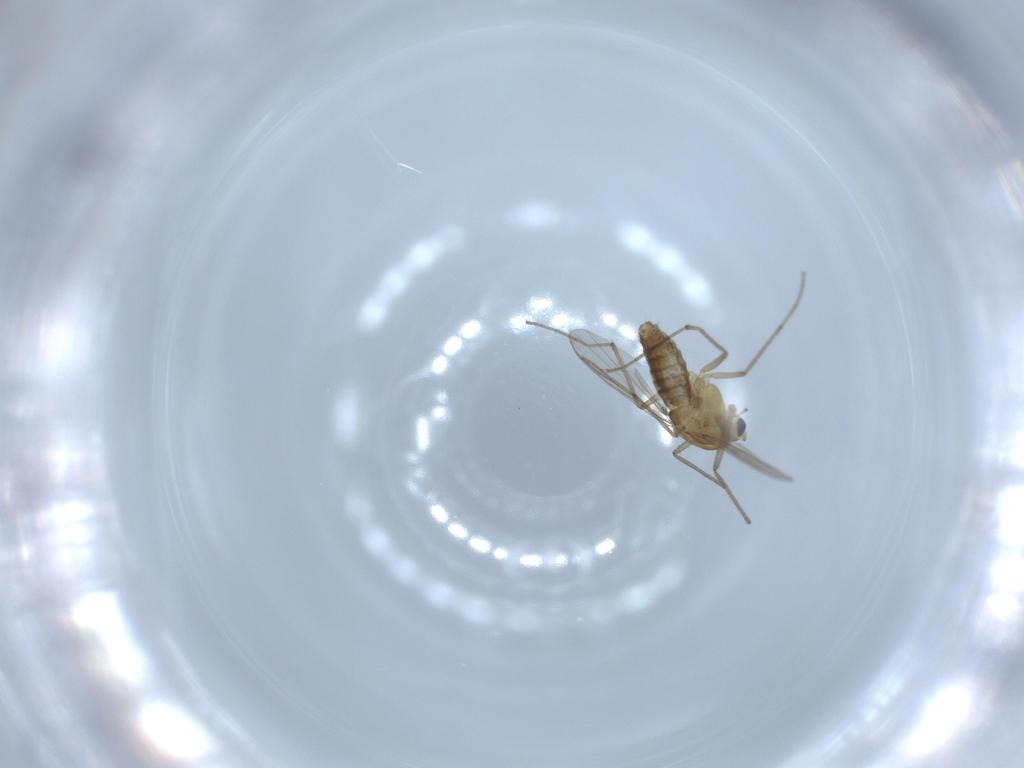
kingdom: Animalia
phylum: Arthropoda
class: Insecta
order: Diptera
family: Chironomidae
